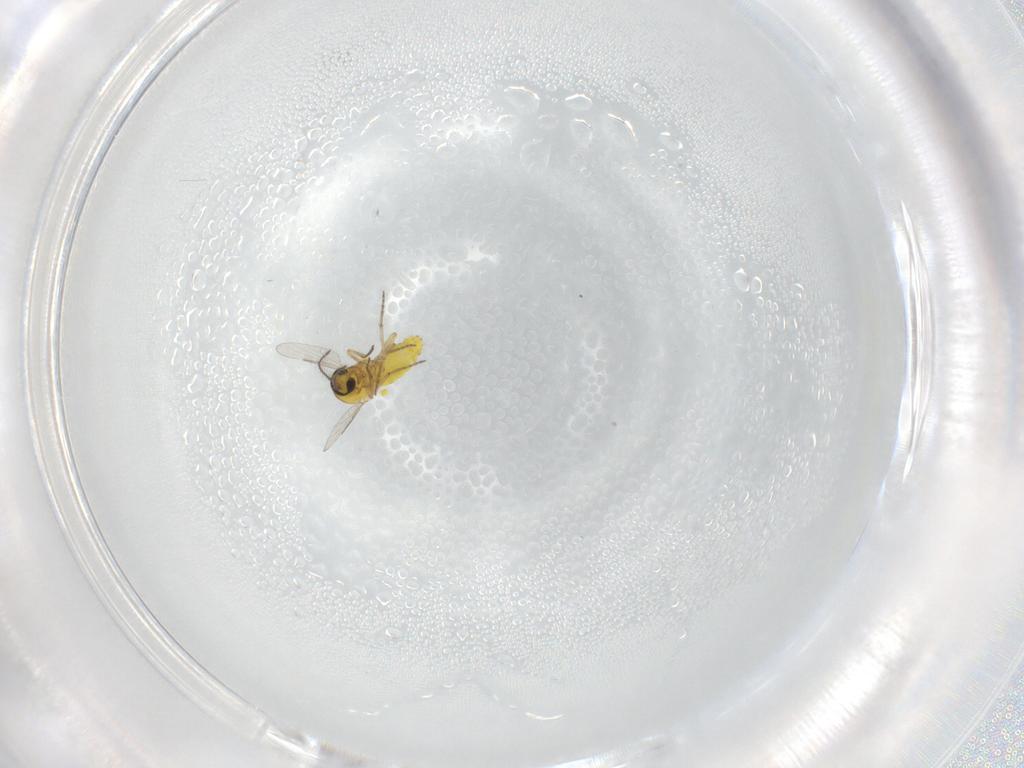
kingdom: Animalia
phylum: Arthropoda
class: Insecta
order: Diptera
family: Ceratopogonidae
